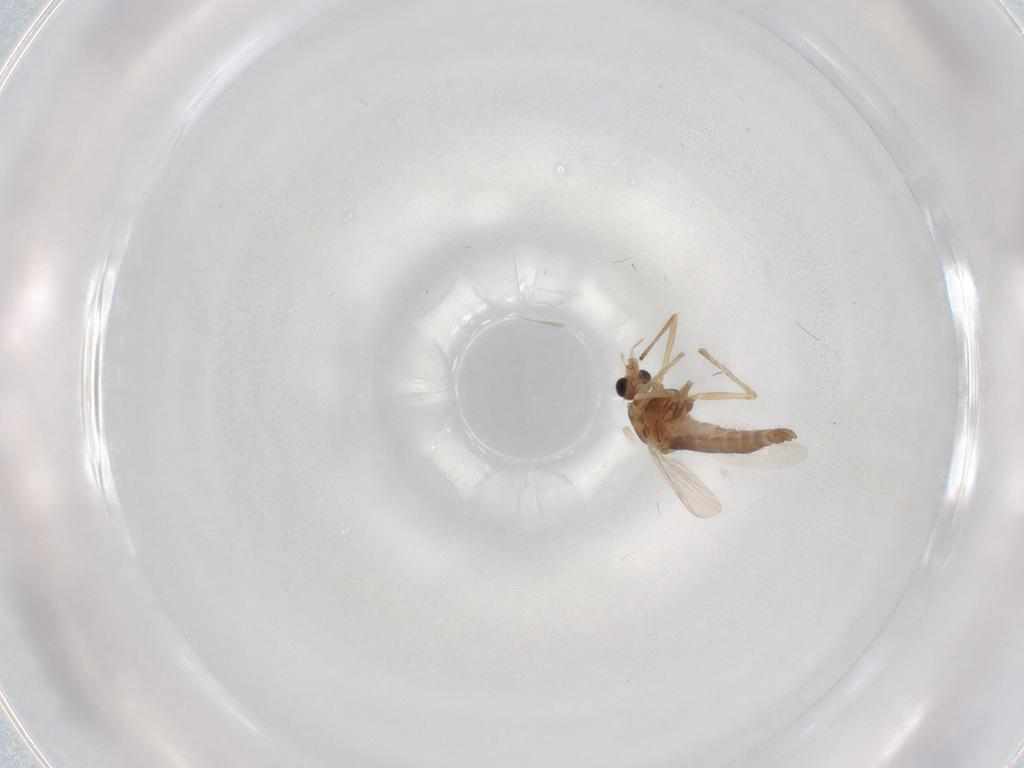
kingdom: Animalia
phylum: Arthropoda
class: Insecta
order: Diptera
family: Chironomidae
